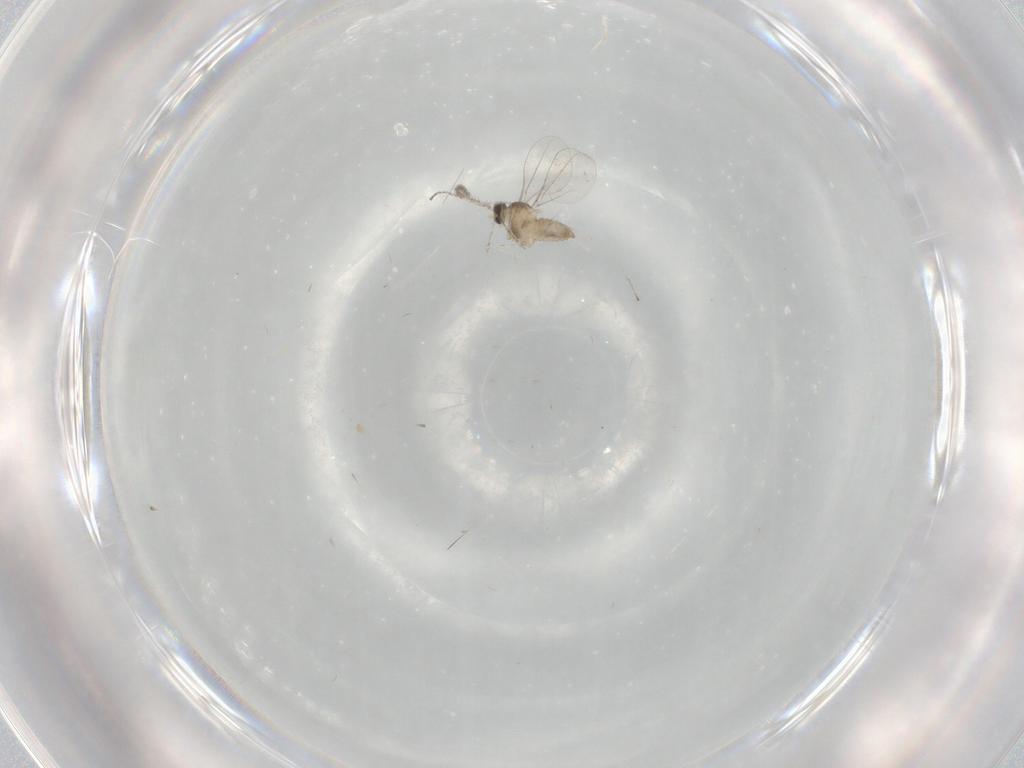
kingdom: Animalia
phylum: Arthropoda
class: Insecta
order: Diptera
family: Cecidomyiidae
